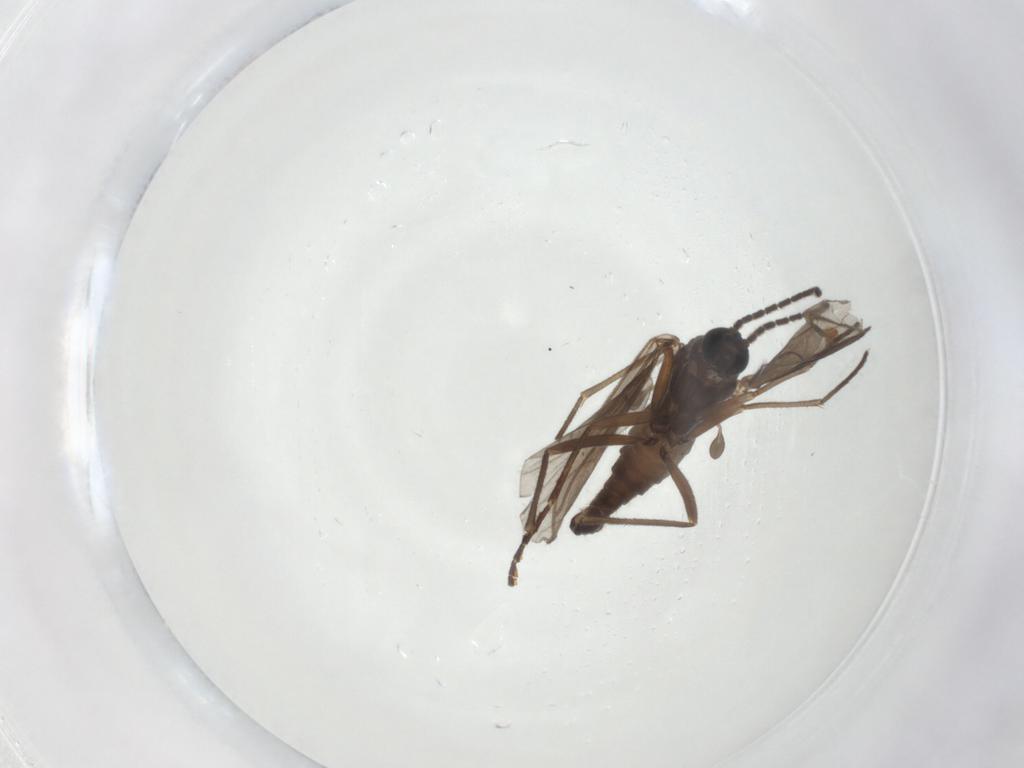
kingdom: Animalia
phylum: Arthropoda
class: Insecta
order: Diptera
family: Sciaridae
